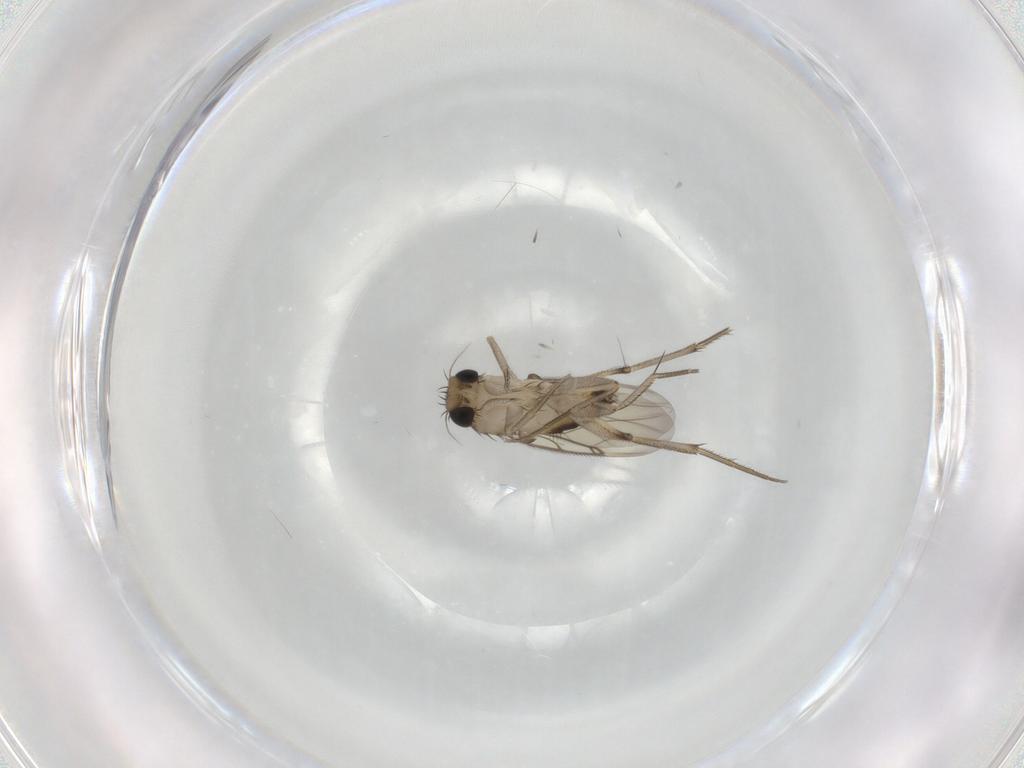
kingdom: Animalia
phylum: Arthropoda
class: Insecta
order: Diptera
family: Phoridae
